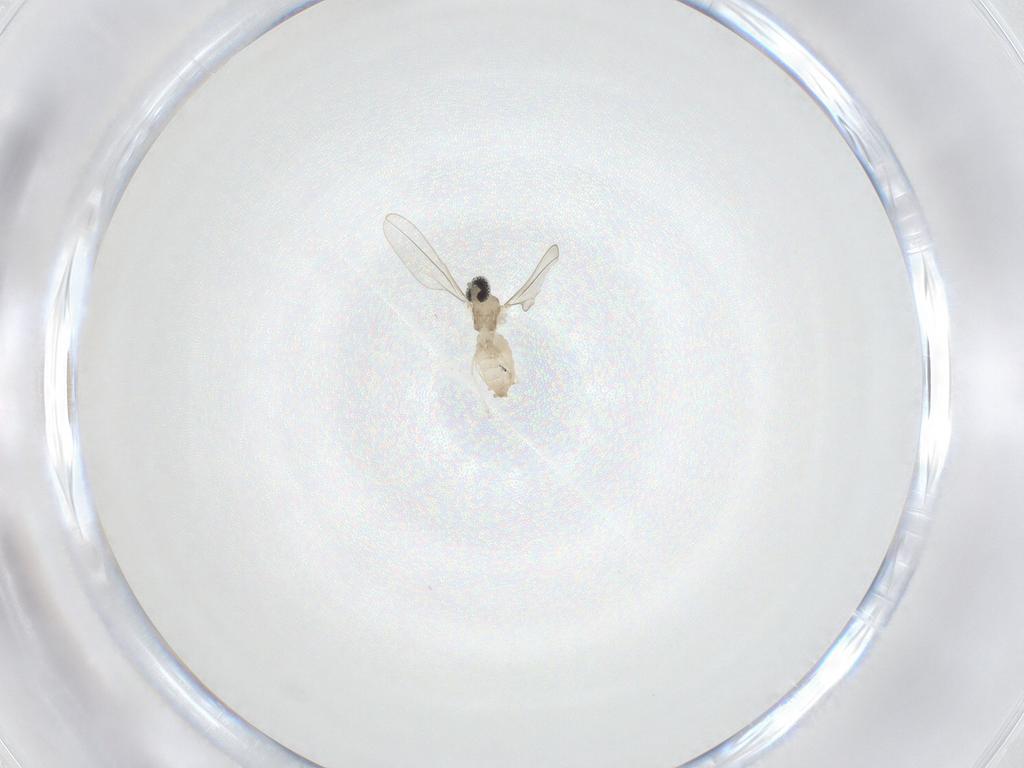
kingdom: Animalia
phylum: Arthropoda
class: Insecta
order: Diptera
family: Cecidomyiidae
